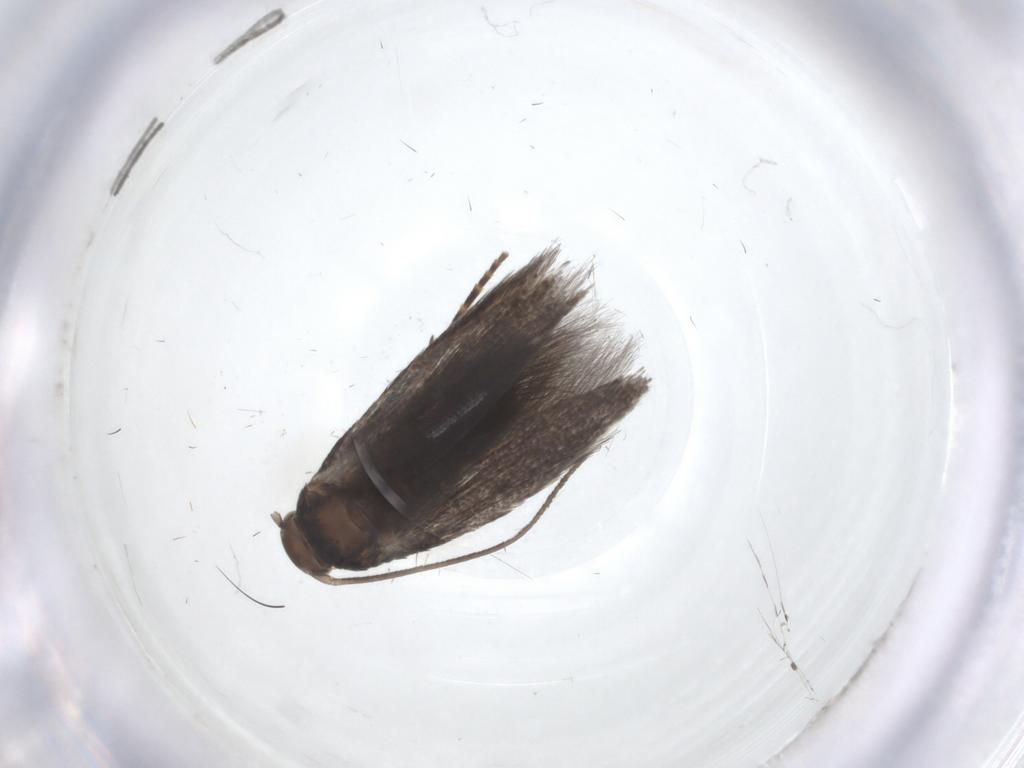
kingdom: Animalia
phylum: Arthropoda
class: Insecta
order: Lepidoptera
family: Elachistidae
